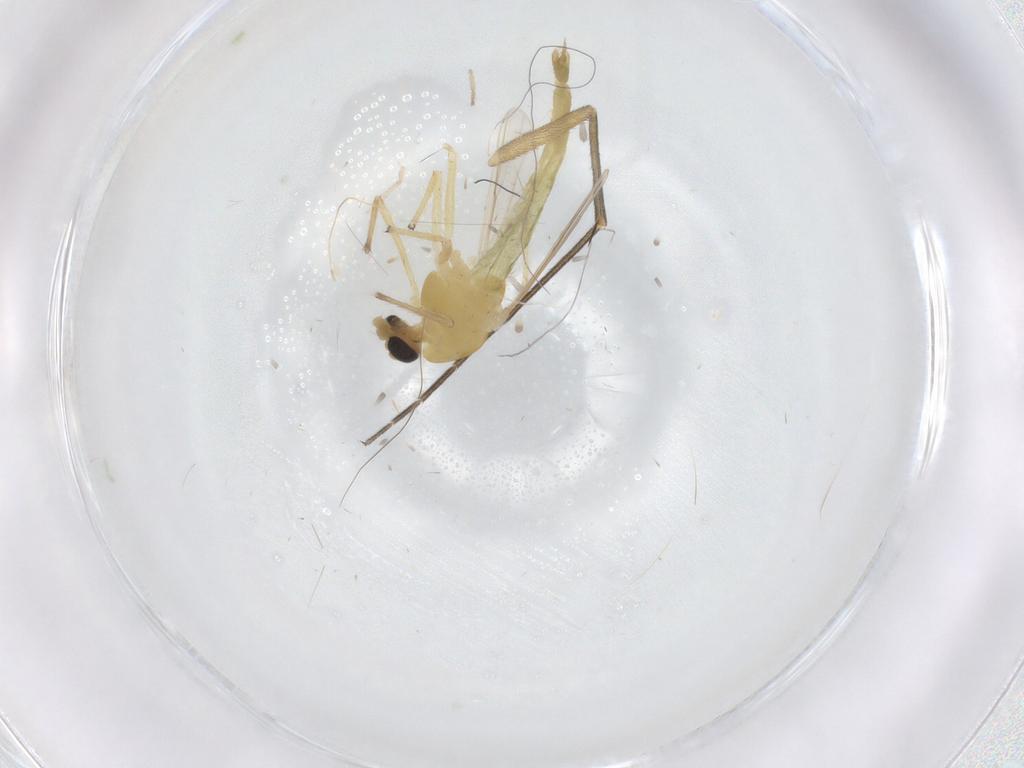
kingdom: Animalia
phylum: Arthropoda
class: Insecta
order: Diptera
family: Chironomidae
